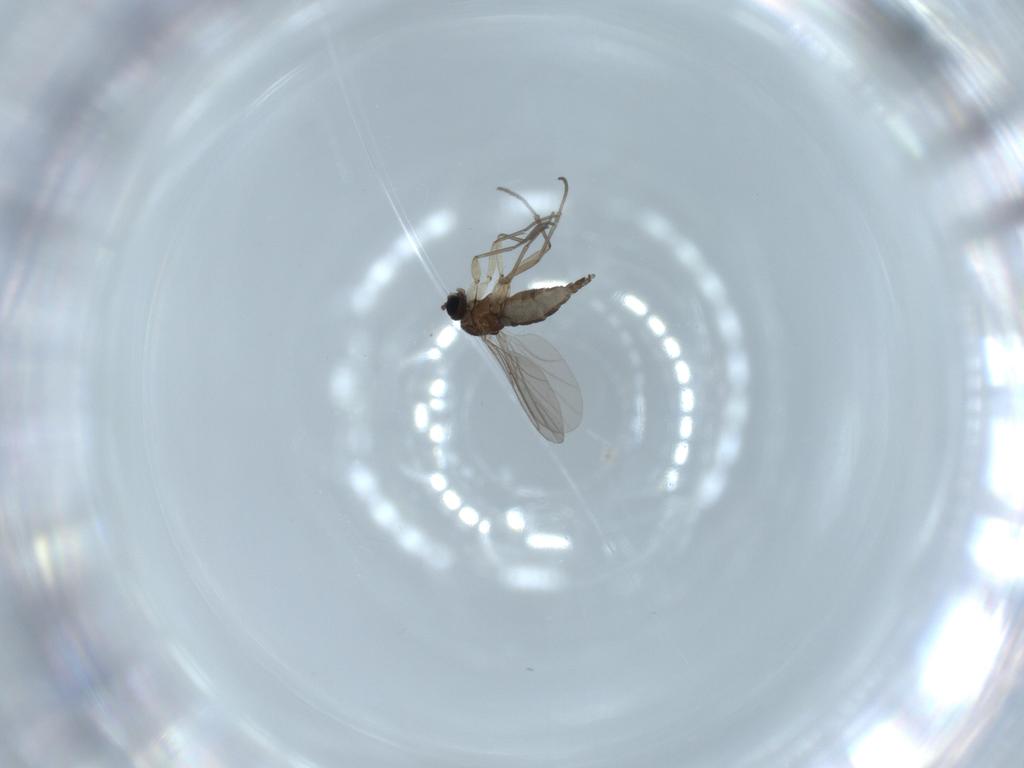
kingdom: Animalia
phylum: Arthropoda
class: Insecta
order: Diptera
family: Sciaridae
